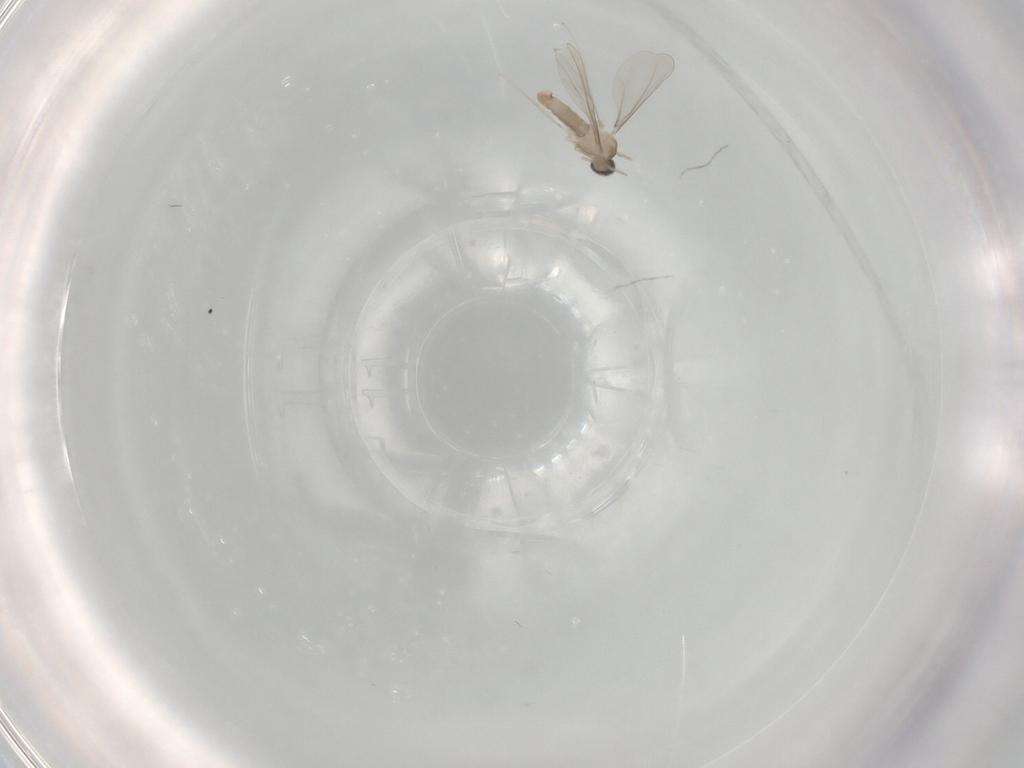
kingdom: Animalia
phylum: Arthropoda
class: Insecta
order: Diptera
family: Cecidomyiidae
